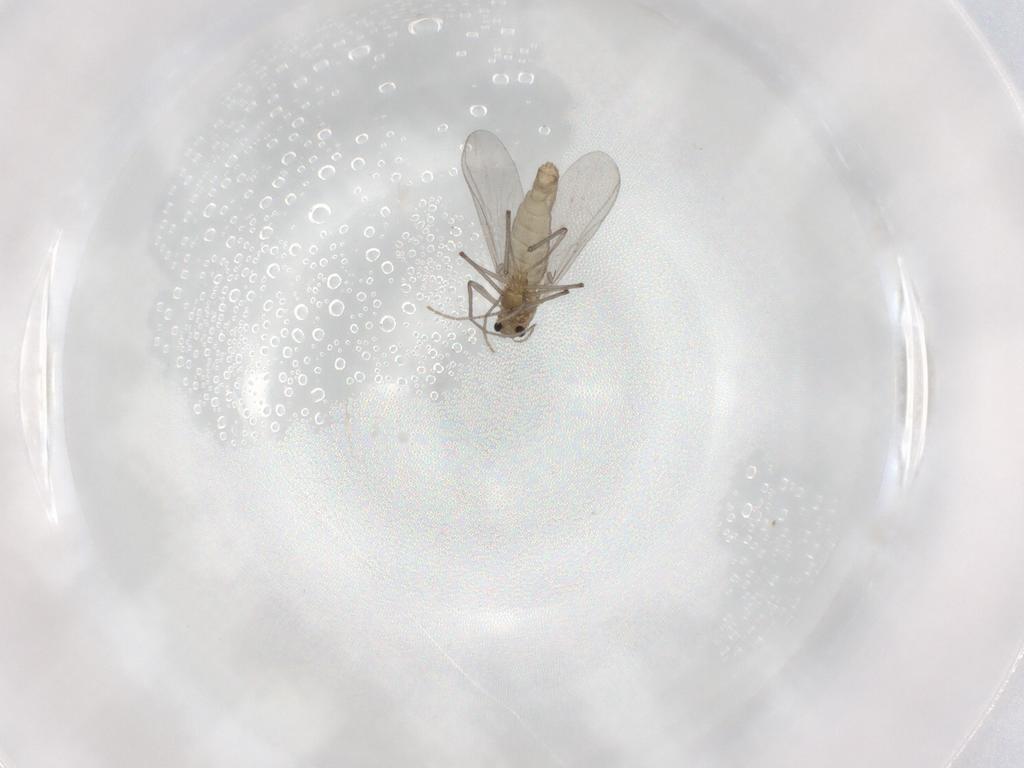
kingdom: Animalia
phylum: Arthropoda
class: Insecta
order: Diptera
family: Chironomidae
